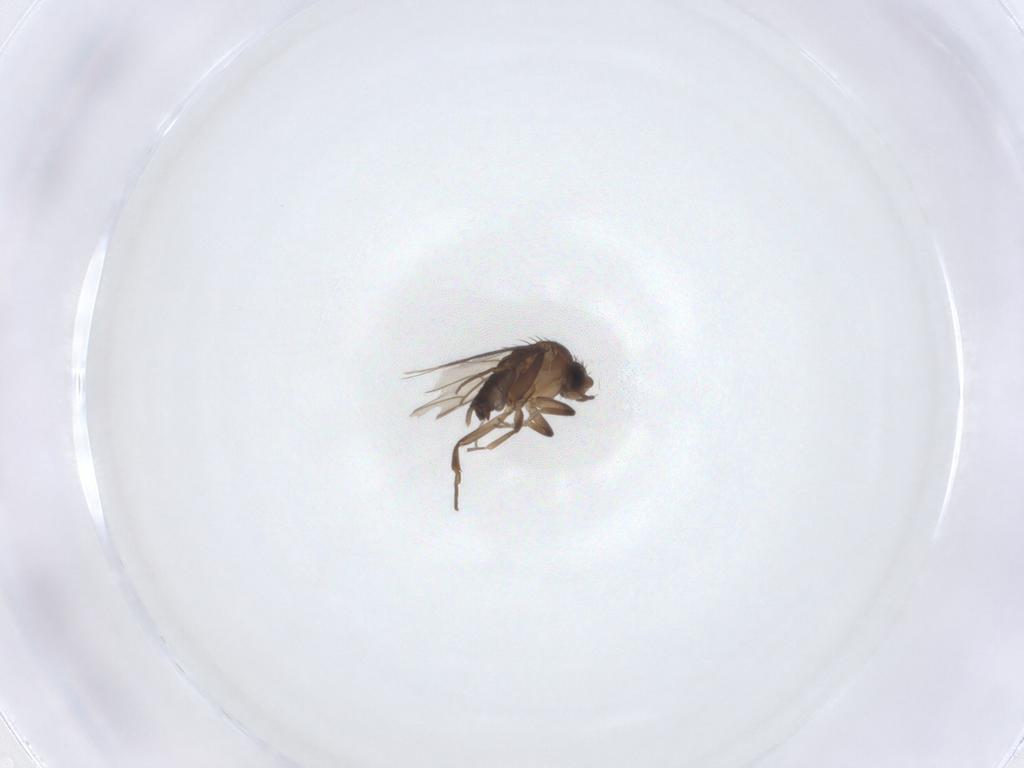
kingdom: Animalia
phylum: Arthropoda
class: Insecta
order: Diptera
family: Phoridae
